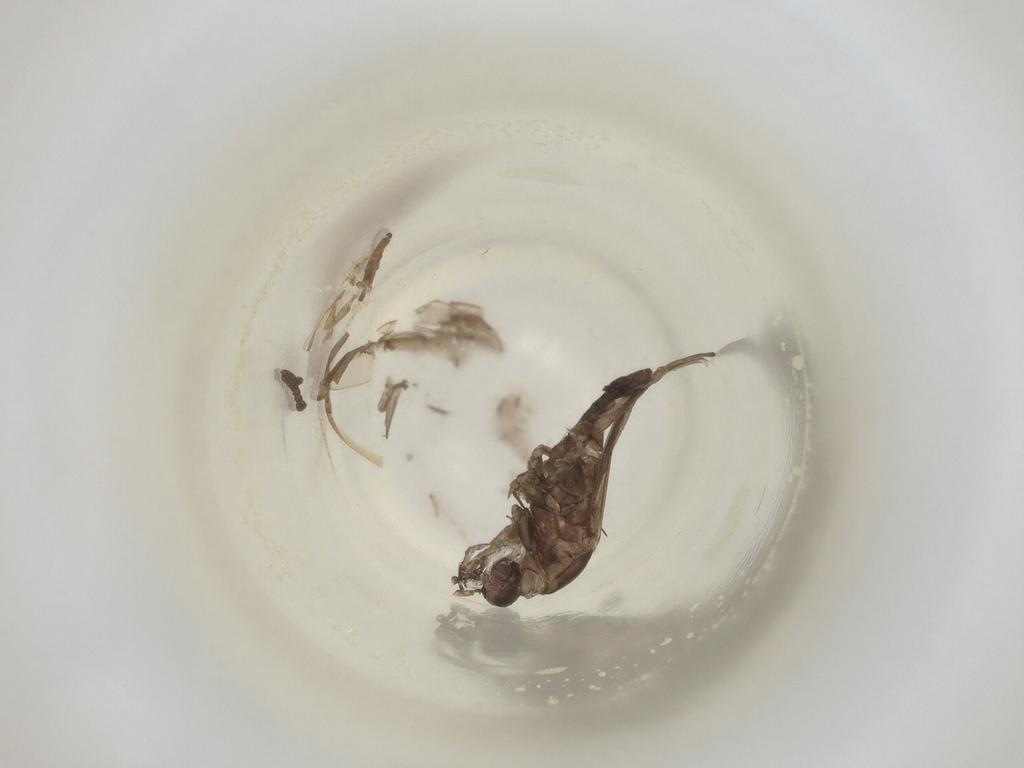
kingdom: Animalia
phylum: Arthropoda
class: Insecta
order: Diptera
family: Cecidomyiidae
